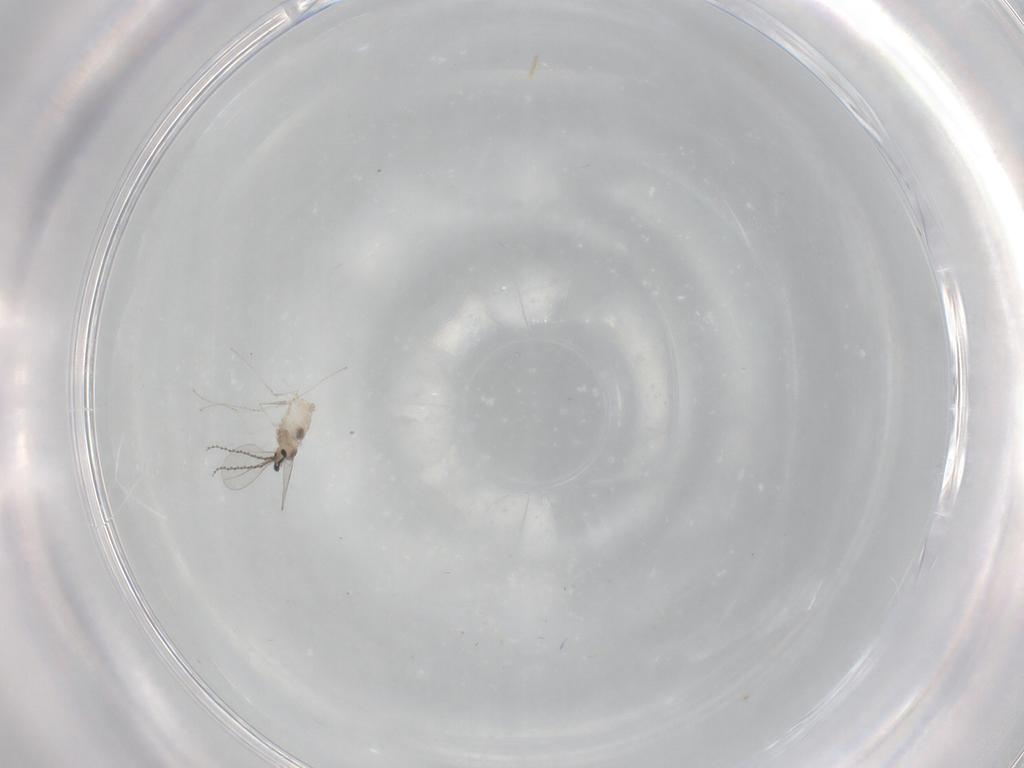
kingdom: Animalia
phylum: Arthropoda
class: Insecta
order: Diptera
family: Cecidomyiidae
